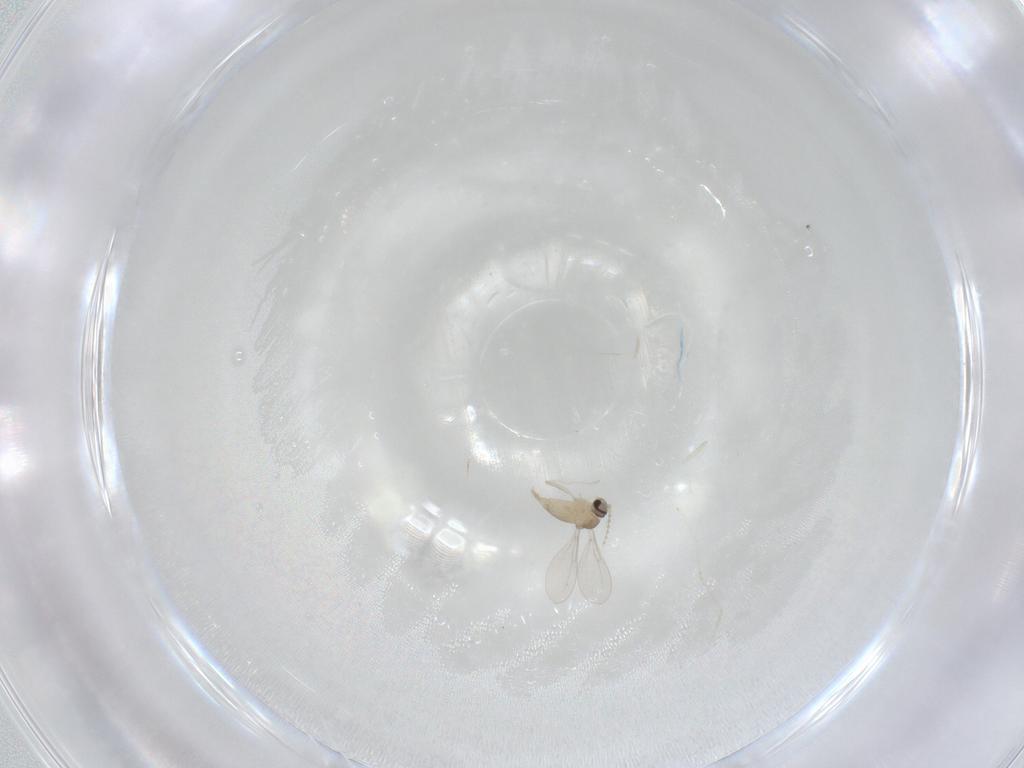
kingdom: Animalia
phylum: Arthropoda
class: Insecta
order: Diptera
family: Cecidomyiidae
